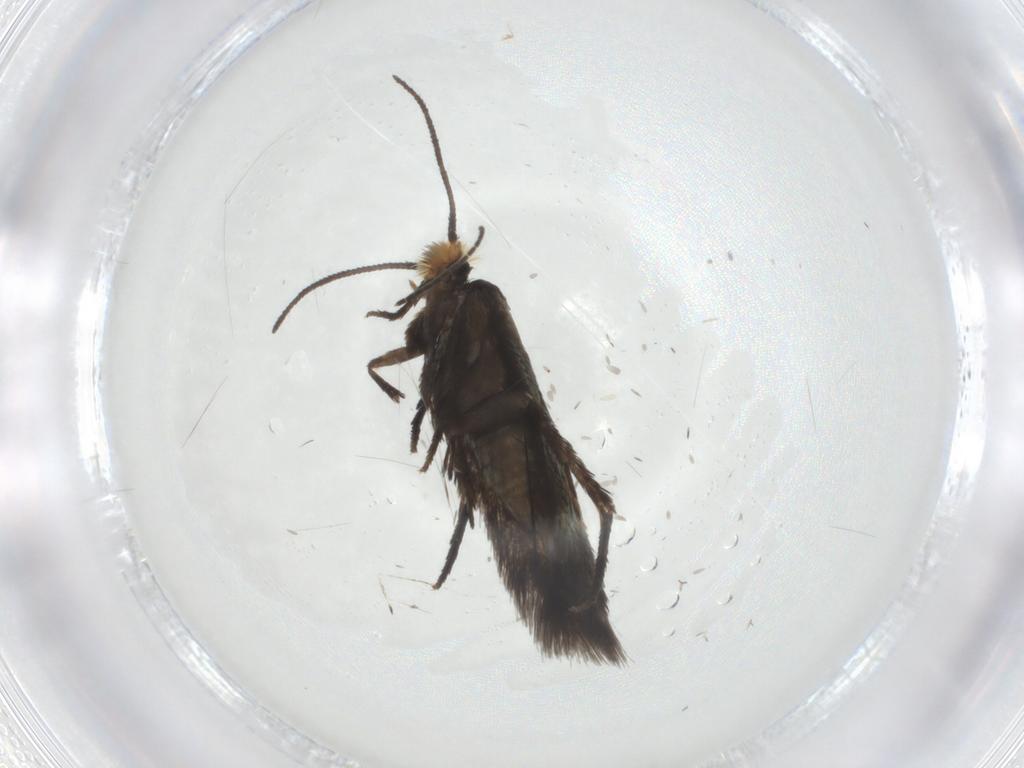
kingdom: Animalia
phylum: Arthropoda
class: Insecta
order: Lepidoptera
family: Nepticulidae
